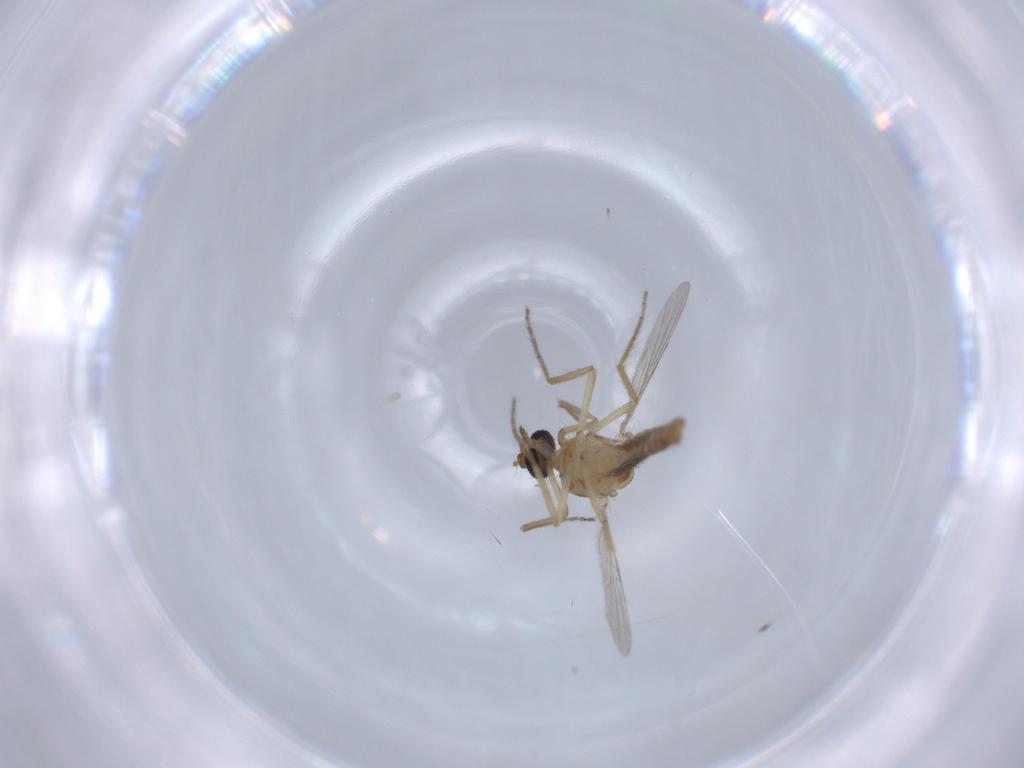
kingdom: Animalia
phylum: Arthropoda
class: Insecta
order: Diptera
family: Ceratopogonidae
